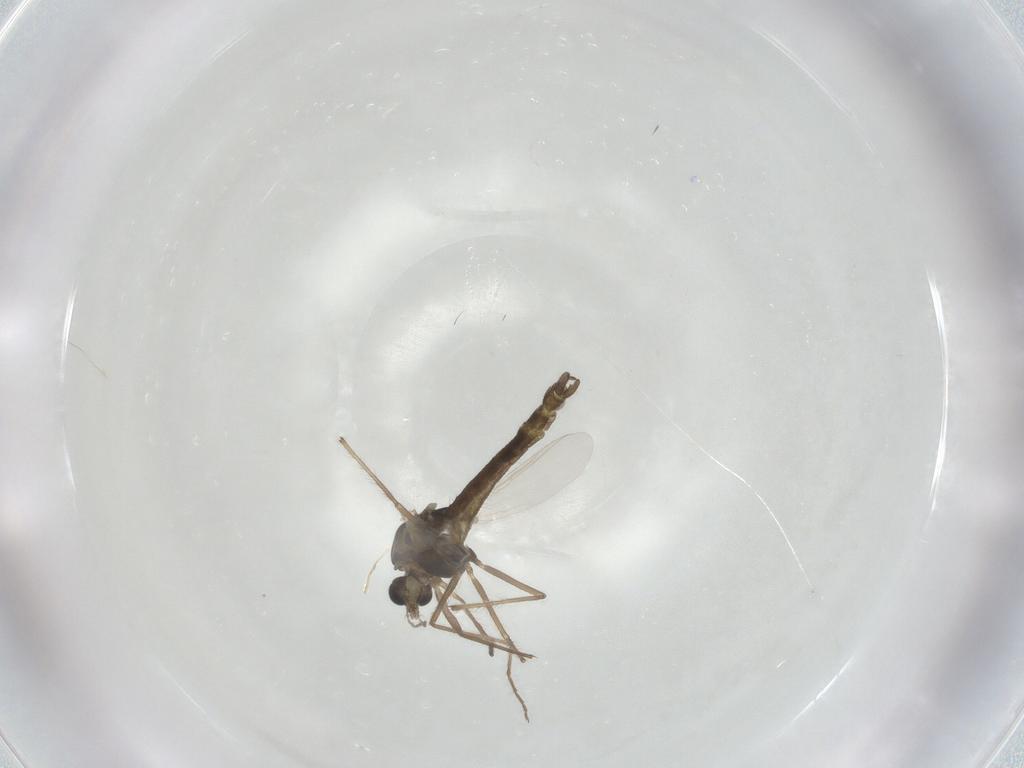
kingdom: Animalia
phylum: Arthropoda
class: Insecta
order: Diptera
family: Chironomidae
